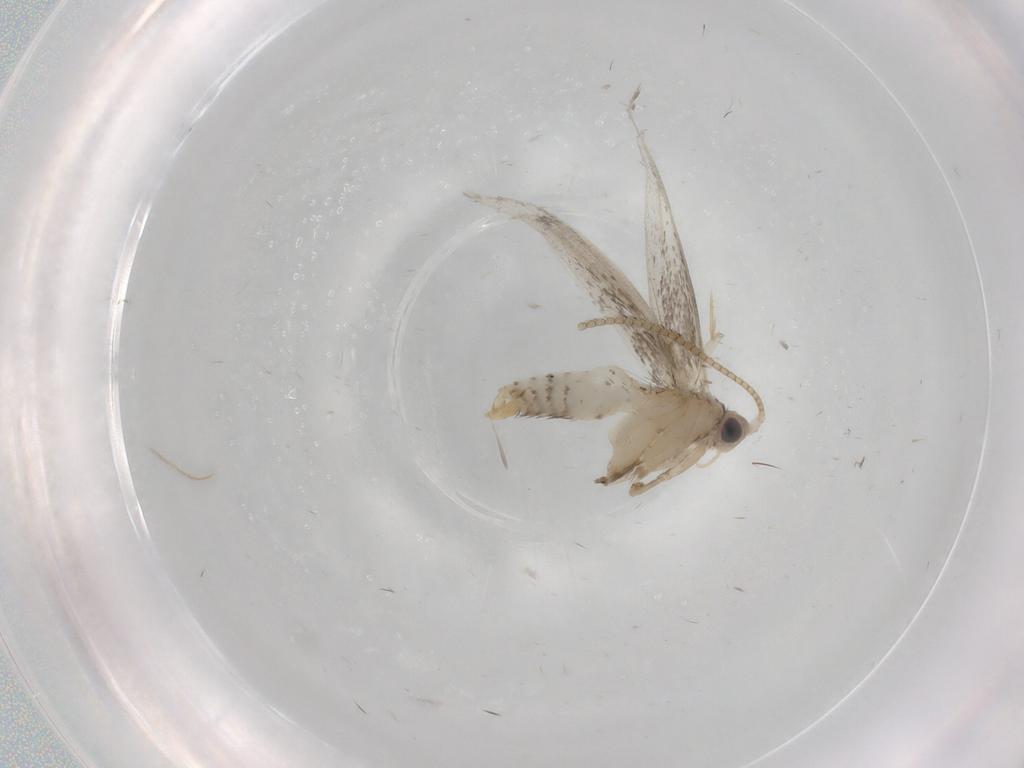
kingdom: Animalia
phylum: Arthropoda
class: Insecta
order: Lepidoptera
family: Tineidae
